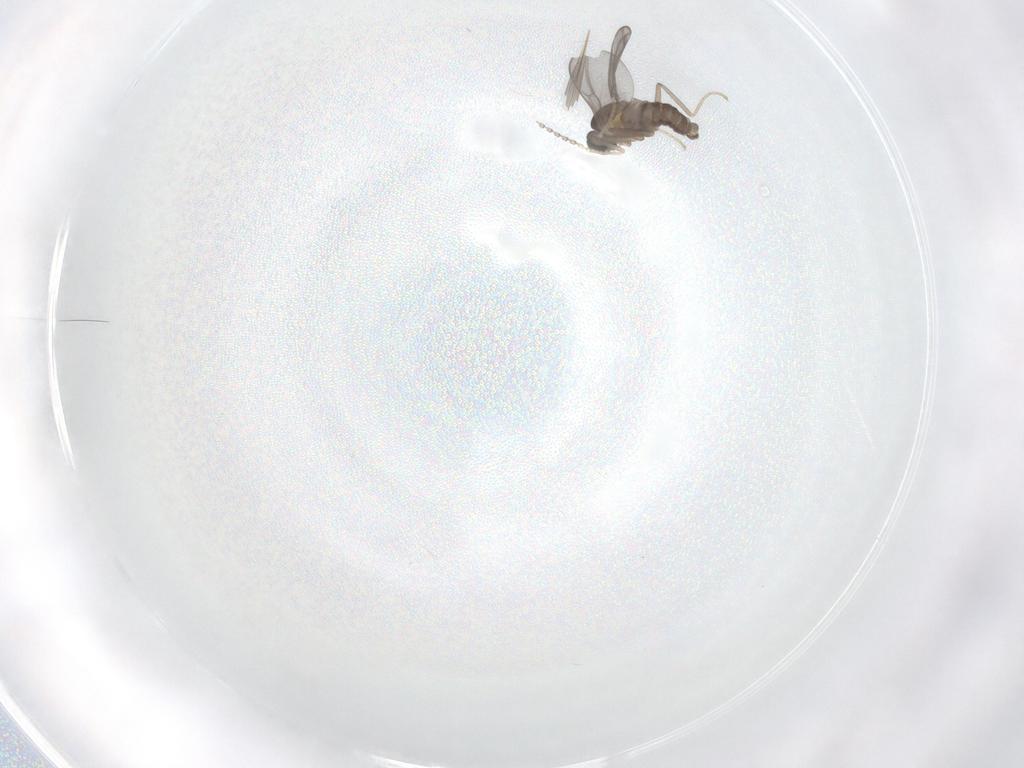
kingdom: Animalia
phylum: Arthropoda
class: Insecta
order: Diptera
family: Cecidomyiidae
